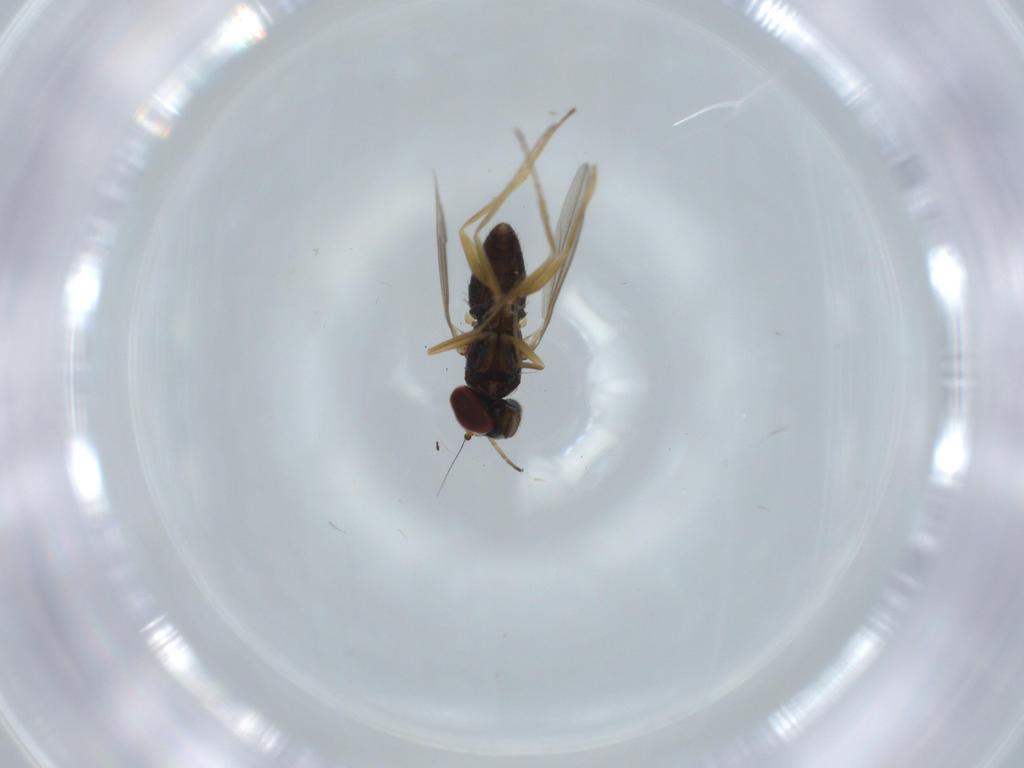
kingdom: Animalia
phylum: Arthropoda
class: Insecta
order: Diptera
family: Dolichopodidae
